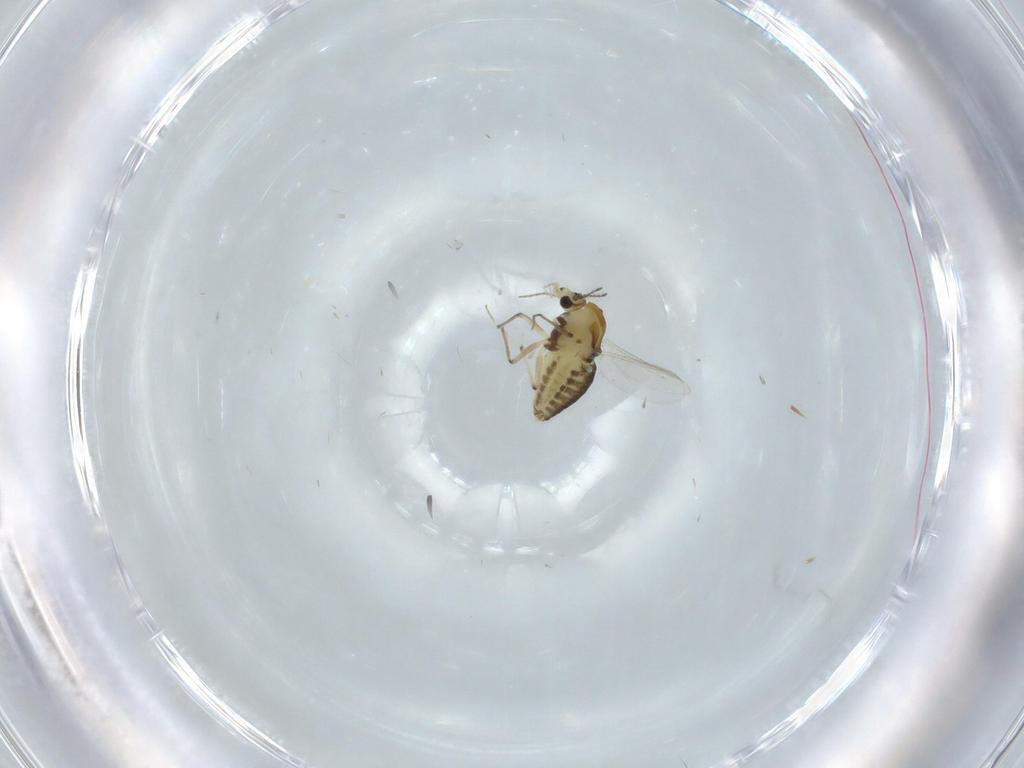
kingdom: Animalia
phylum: Arthropoda
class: Insecta
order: Diptera
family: Chironomidae
